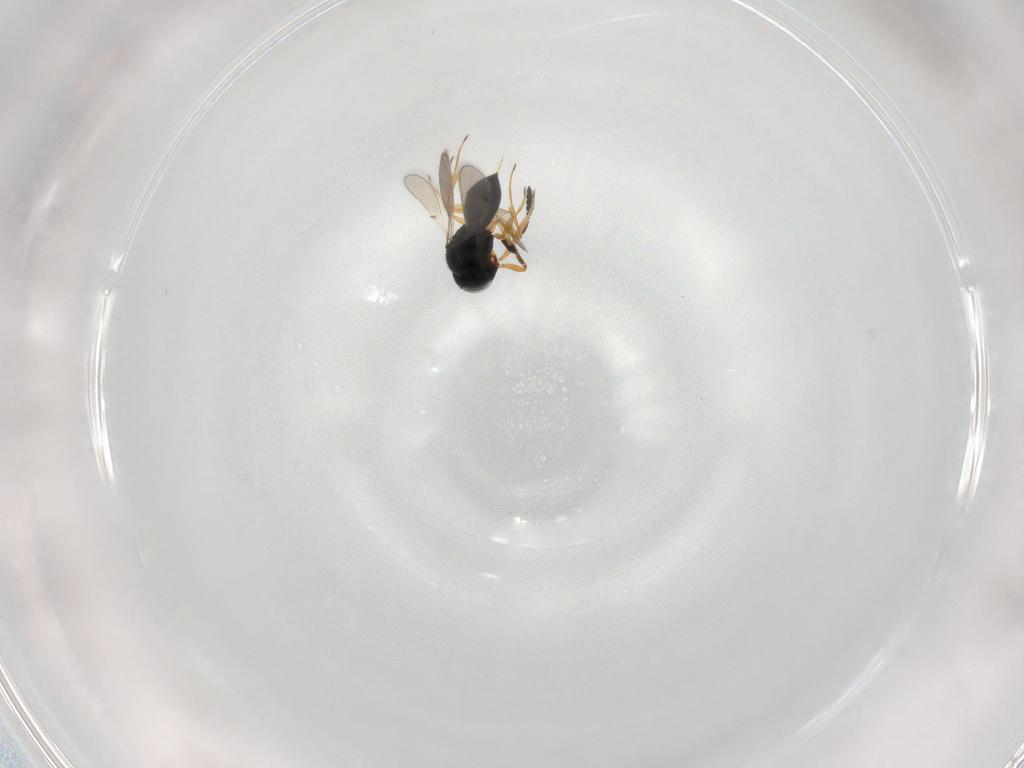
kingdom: Animalia
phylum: Arthropoda
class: Insecta
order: Hymenoptera
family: Scelionidae
